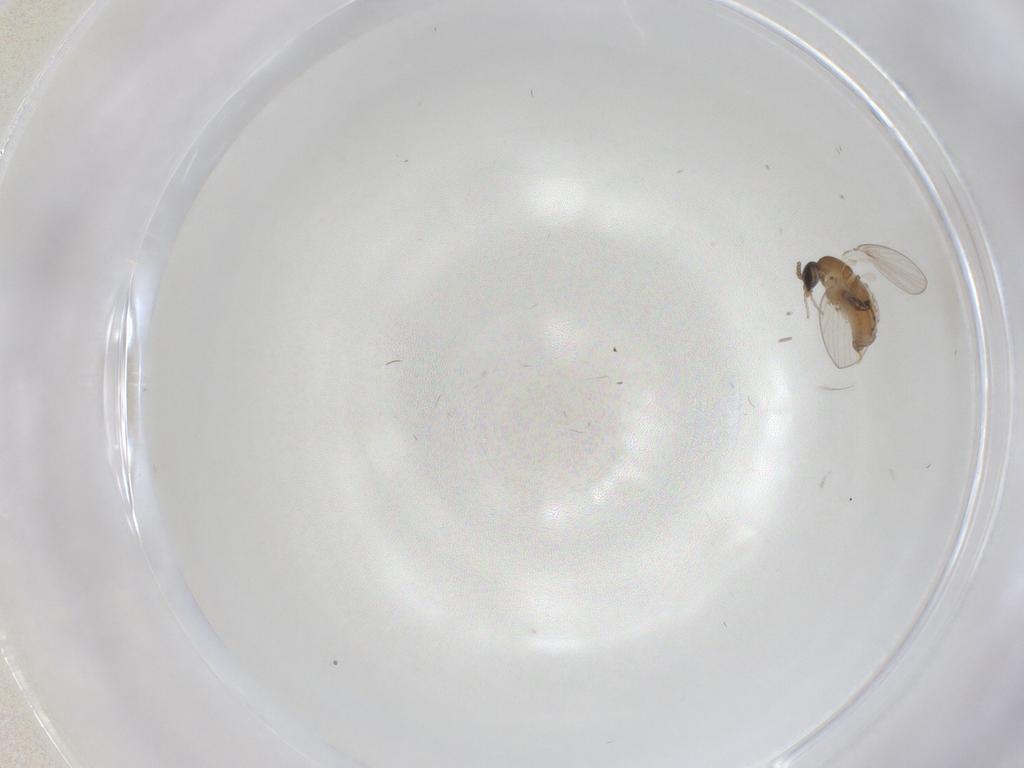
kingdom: Animalia
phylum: Arthropoda
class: Insecta
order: Diptera
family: Psychodidae
